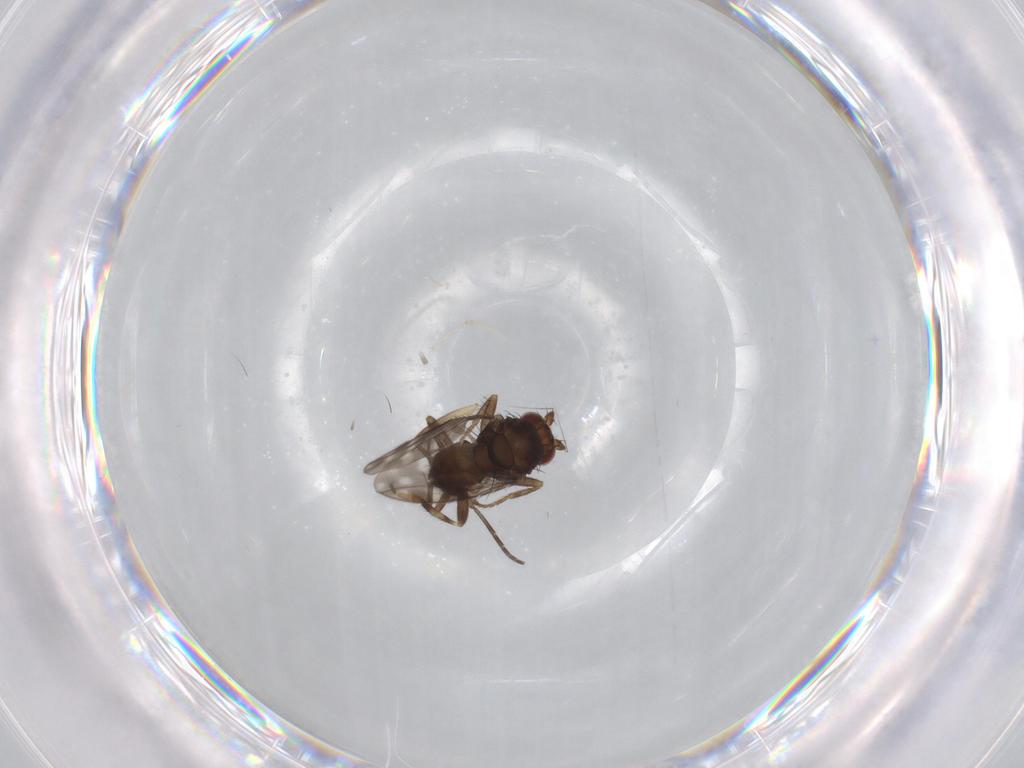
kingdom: Animalia
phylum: Arthropoda
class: Insecta
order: Diptera
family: Sphaeroceridae
